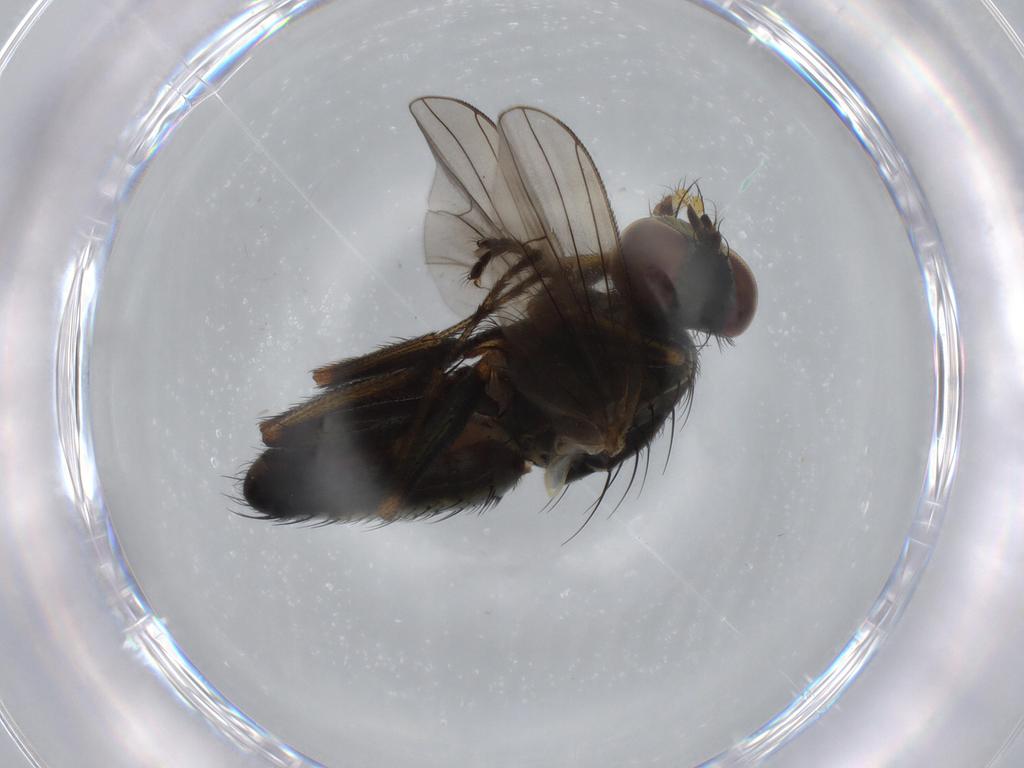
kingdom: Animalia
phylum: Arthropoda
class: Insecta
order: Diptera
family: Muscidae
